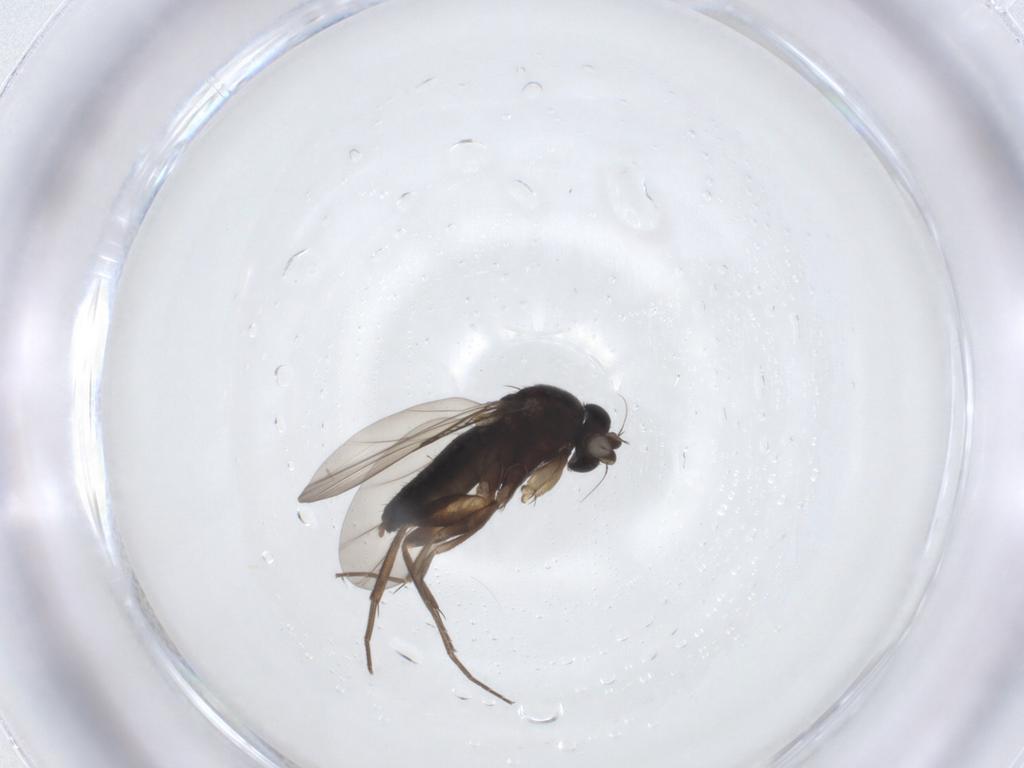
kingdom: Animalia
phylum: Arthropoda
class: Insecta
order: Diptera
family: Phoridae
